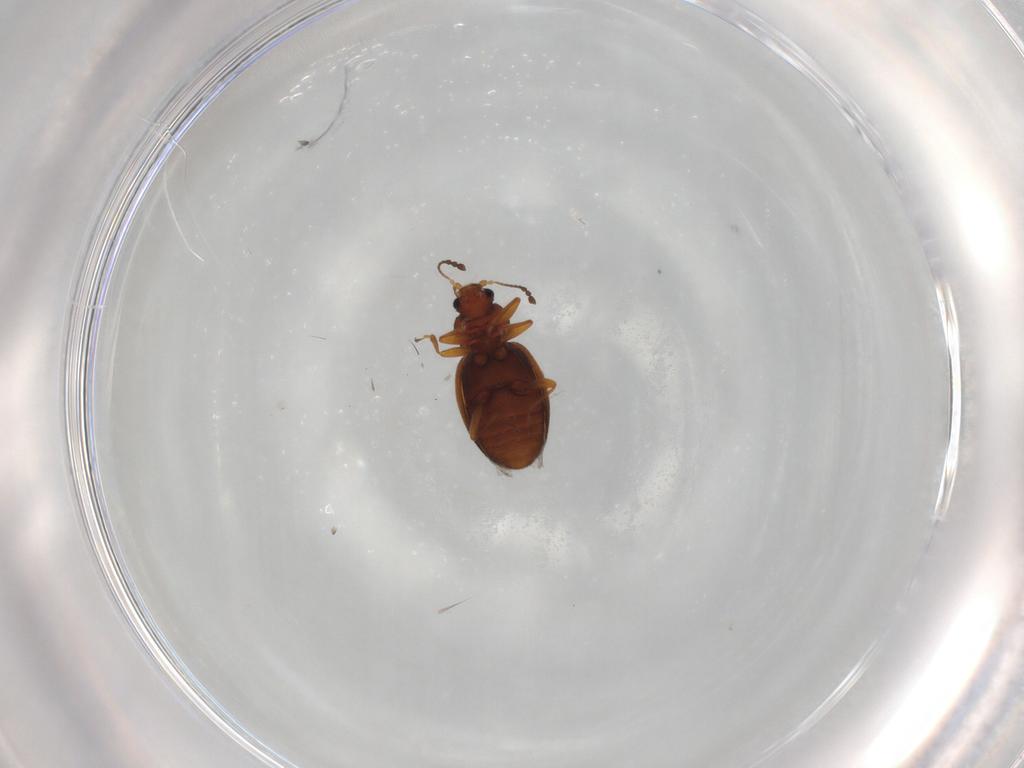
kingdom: Animalia
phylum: Arthropoda
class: Insecta
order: Coleoptera
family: Latridiidae
